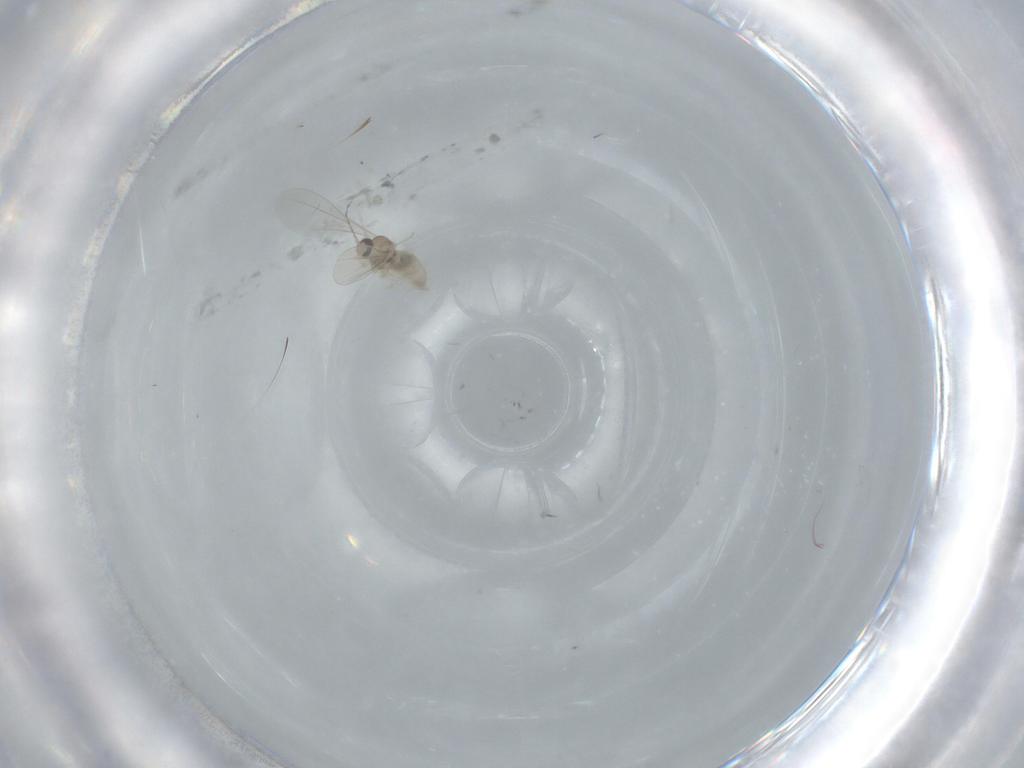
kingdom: Animalia
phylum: Arthropoda
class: Insecta
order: Diptera
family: Cecidomyiidae
